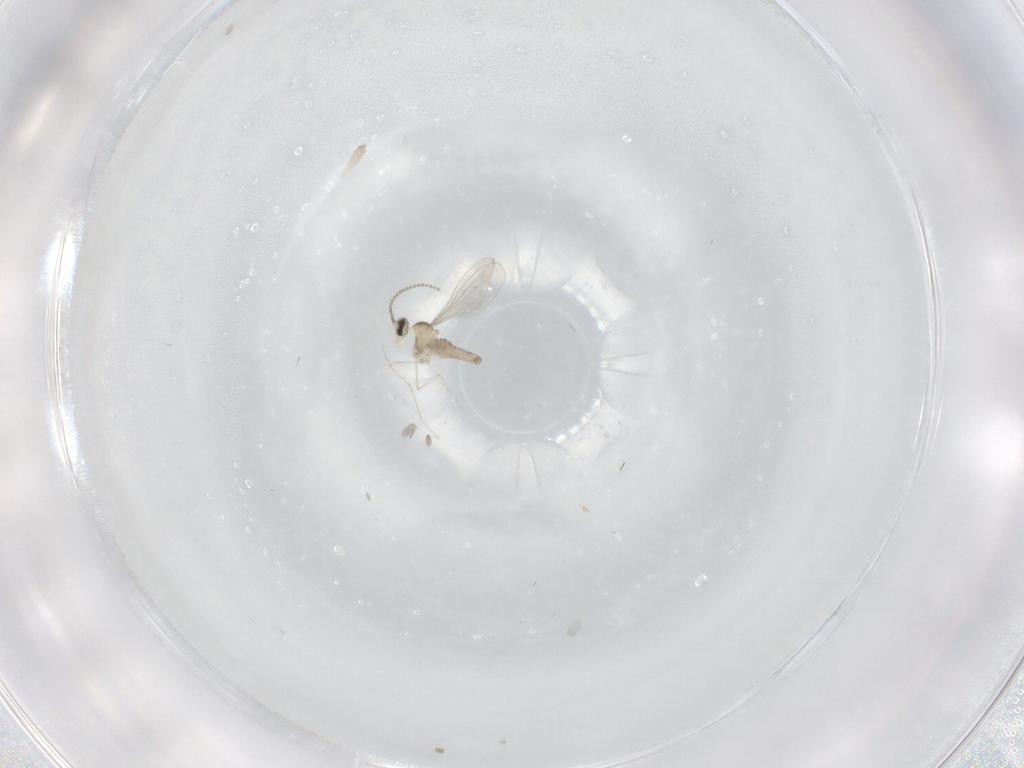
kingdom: Animalia
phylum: Arthropoda
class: Insecta
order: Diptera
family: Cecidomyiidae
